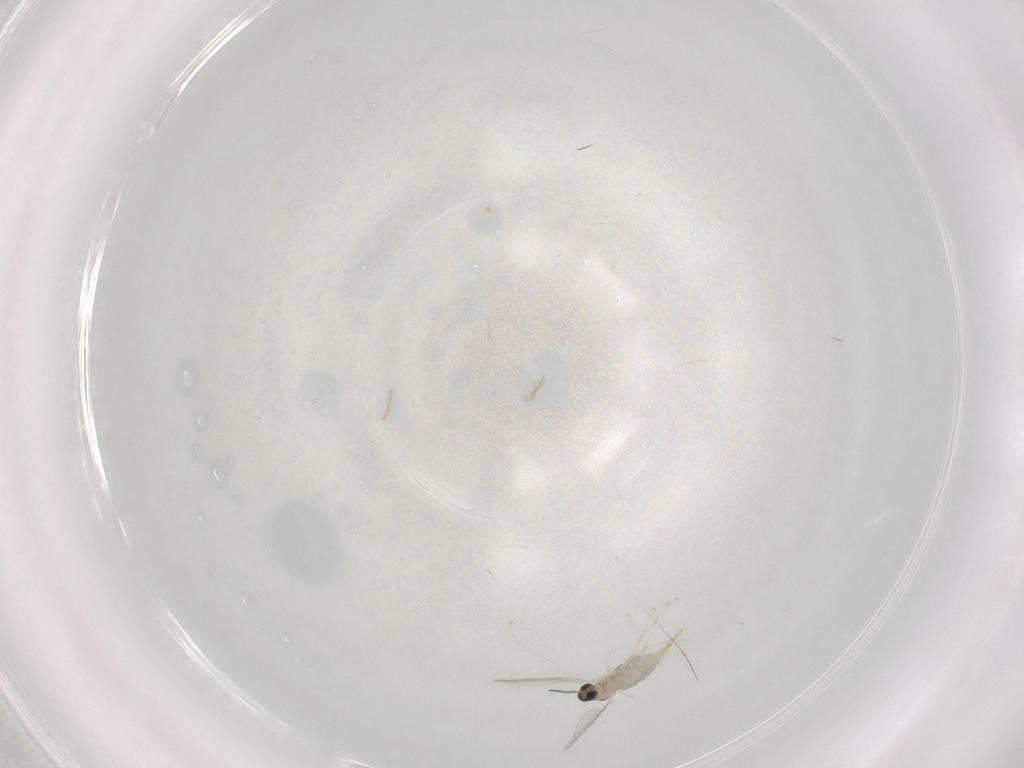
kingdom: Animalia
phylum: Arthropoda
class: Insecta
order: Diptera
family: Cecidomyiidae
